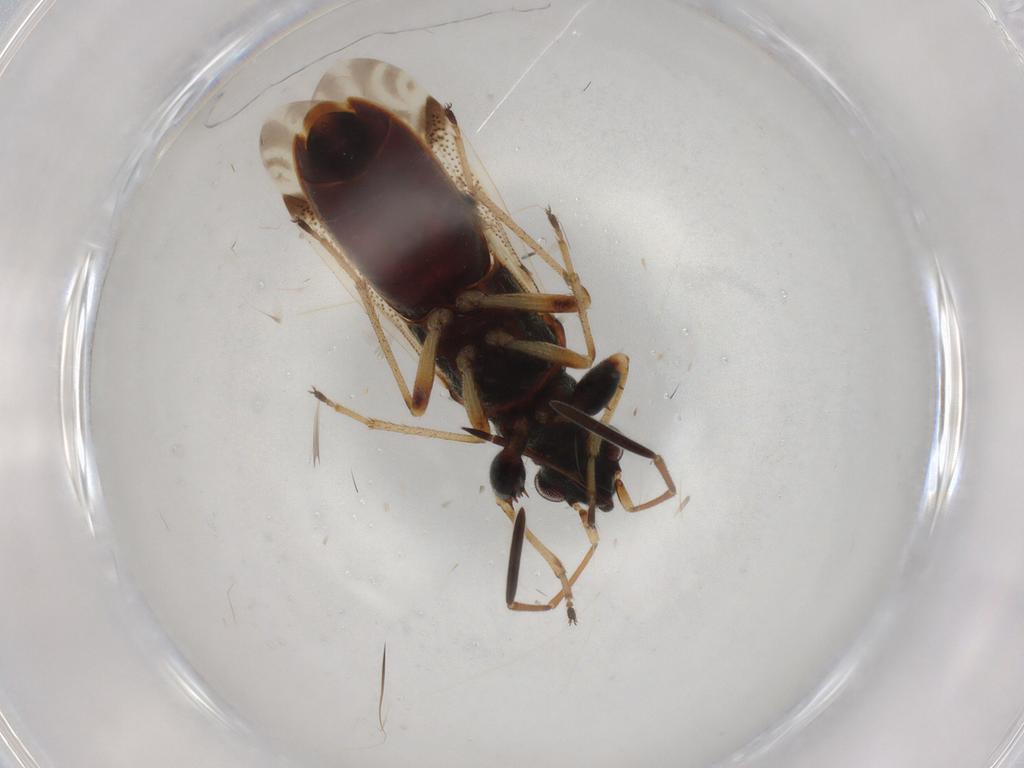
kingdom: Animalia
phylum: Arthropoda
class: Insecta
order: Hemiptera
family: Rhyparochromidae
